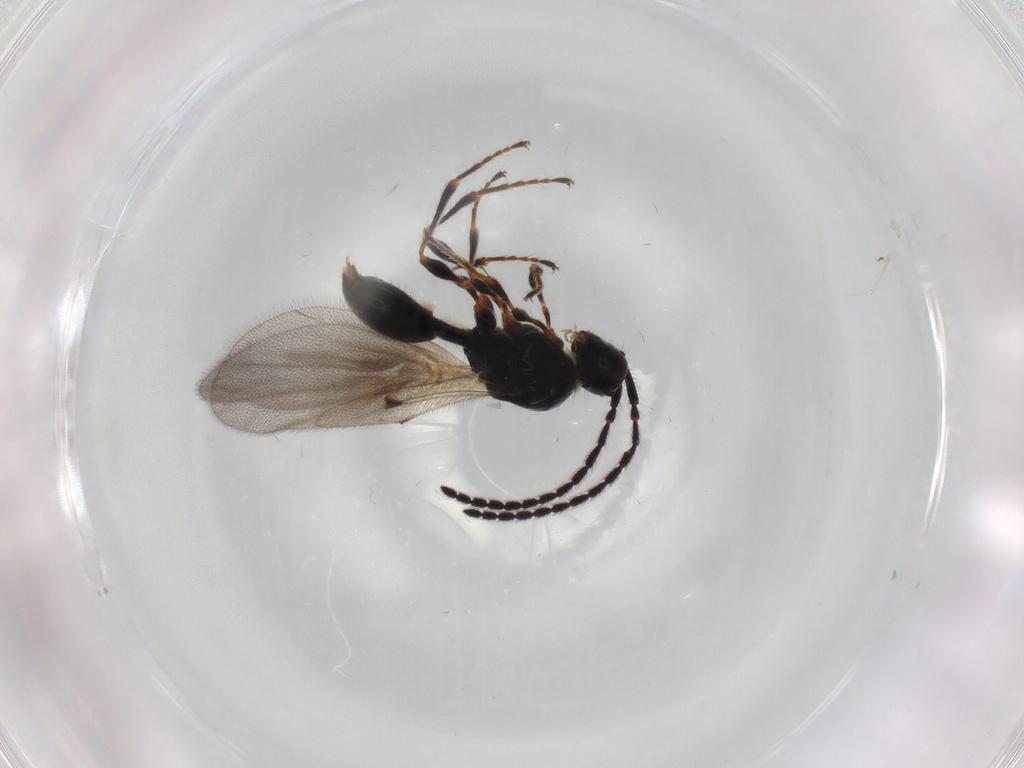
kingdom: Animalia
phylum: Arthropoda
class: Insecta
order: Hymenoptera
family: Diapriidae
